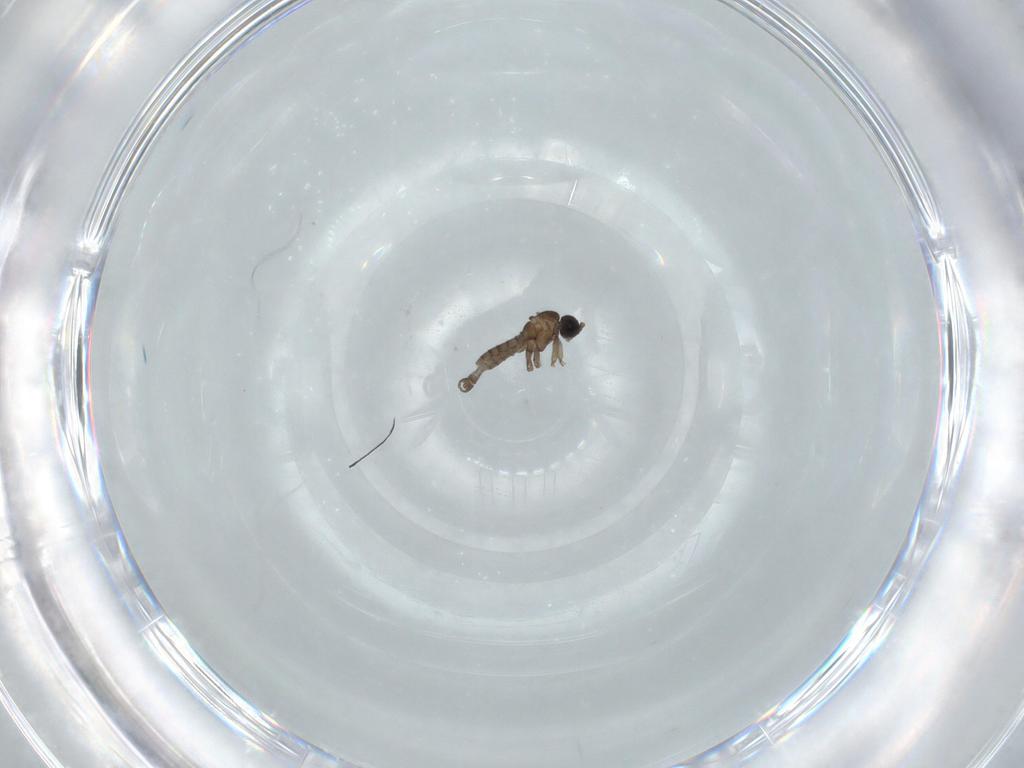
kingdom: Animalia
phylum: Arthropoda
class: Insecta
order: Diptera
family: Sciaridae
